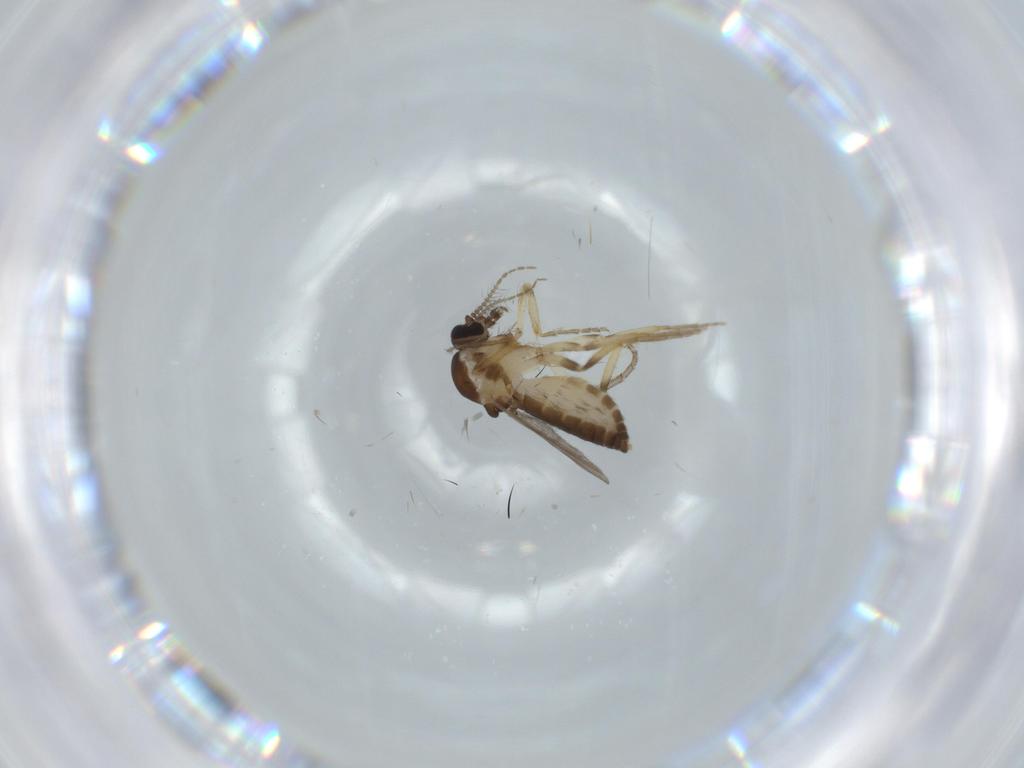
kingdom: Animalia
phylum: Arthropoda
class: Insecta
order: Diptera
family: Ceratopogonidae
